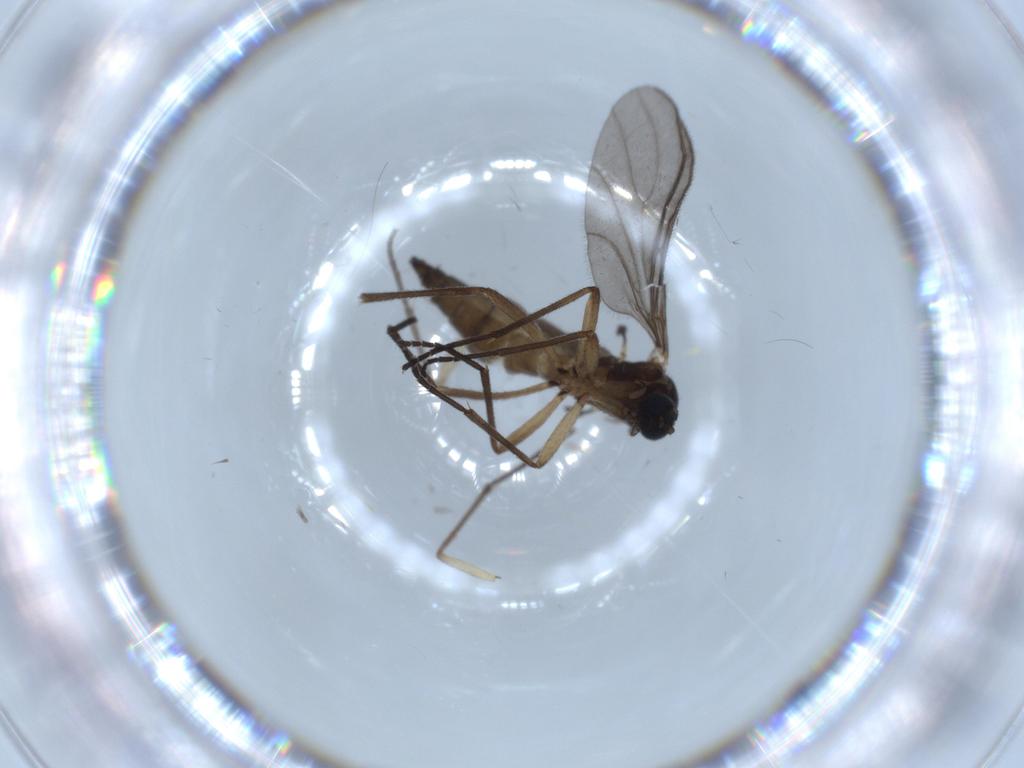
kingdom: Animalia
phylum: Arthropoda
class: Insecta
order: Diptera
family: Sciaridae
